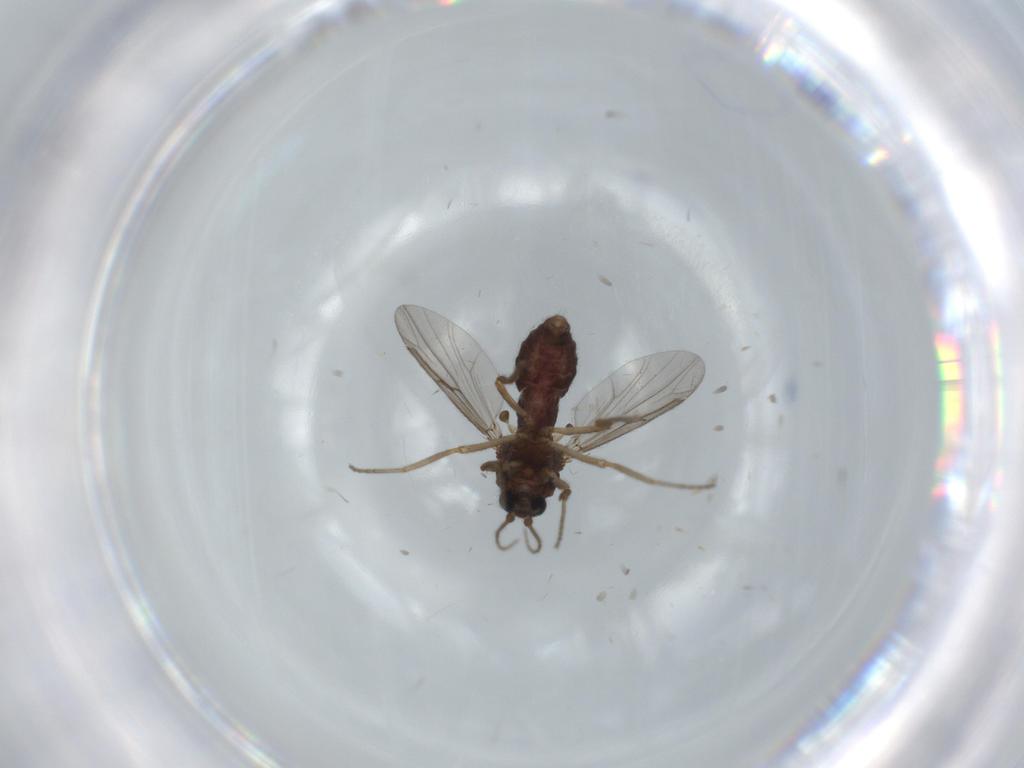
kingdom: Animalia
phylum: Arthropoda
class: Insecta
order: Diptera
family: Ceratopogonidae
